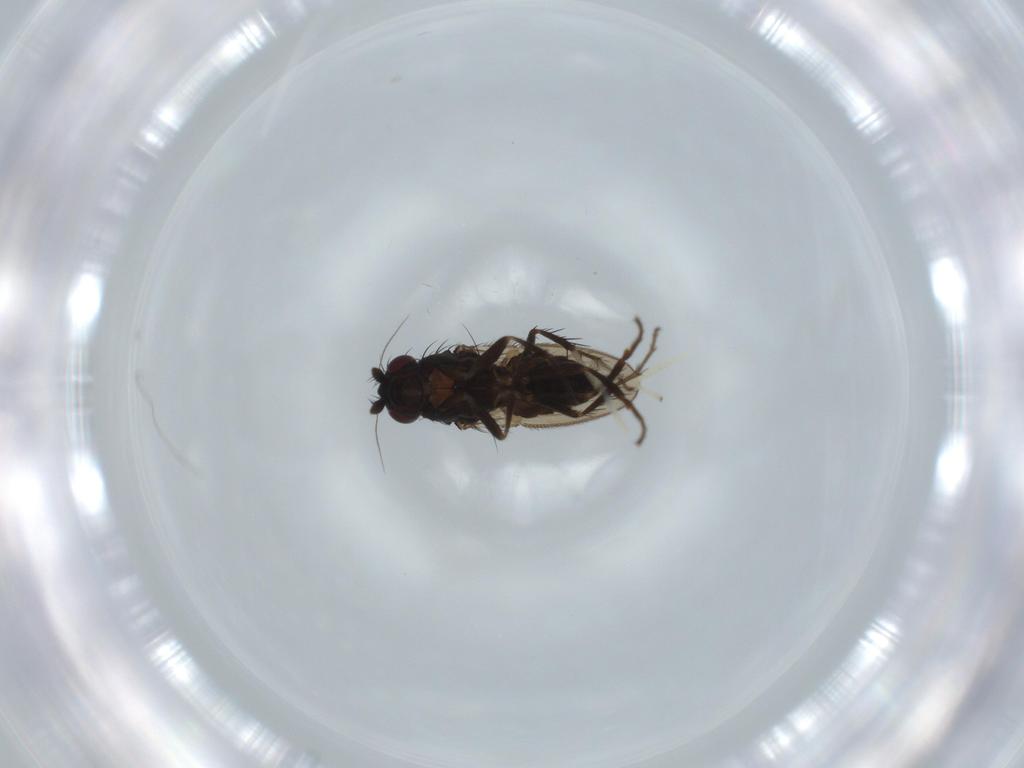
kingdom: Animalia
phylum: Arthropoda
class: Insecta
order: Diptera
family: Sphaeroceridae
